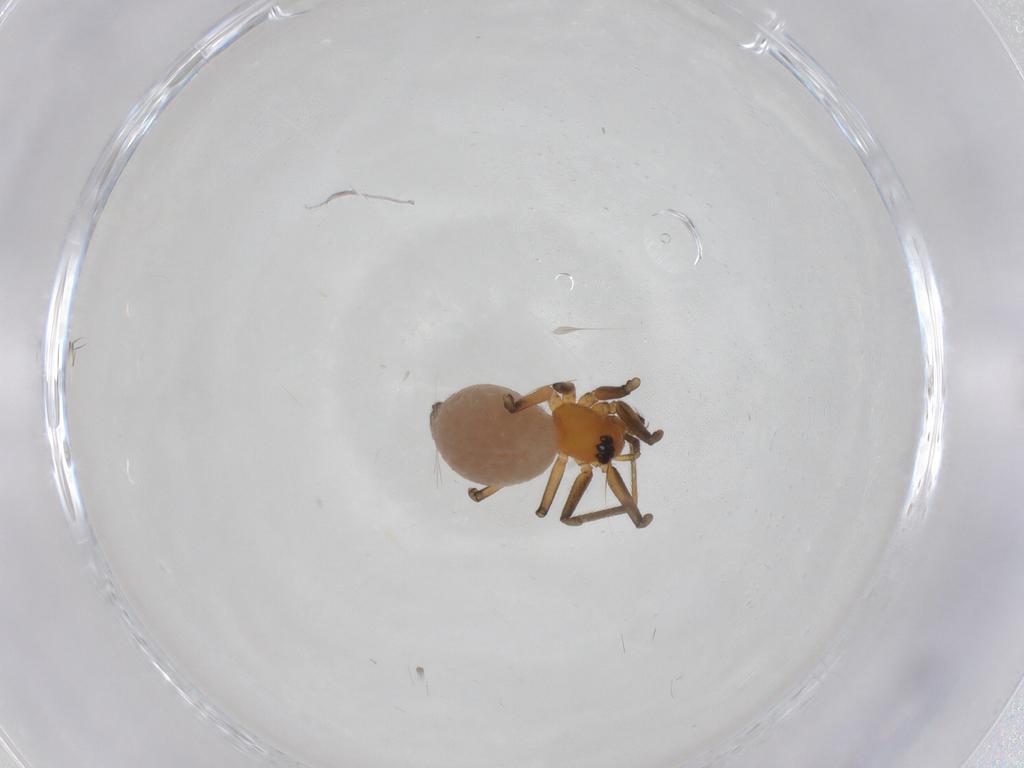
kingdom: Animalia
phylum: Arthropoda
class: Arachnida
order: Araneae
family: Linyphiidae
